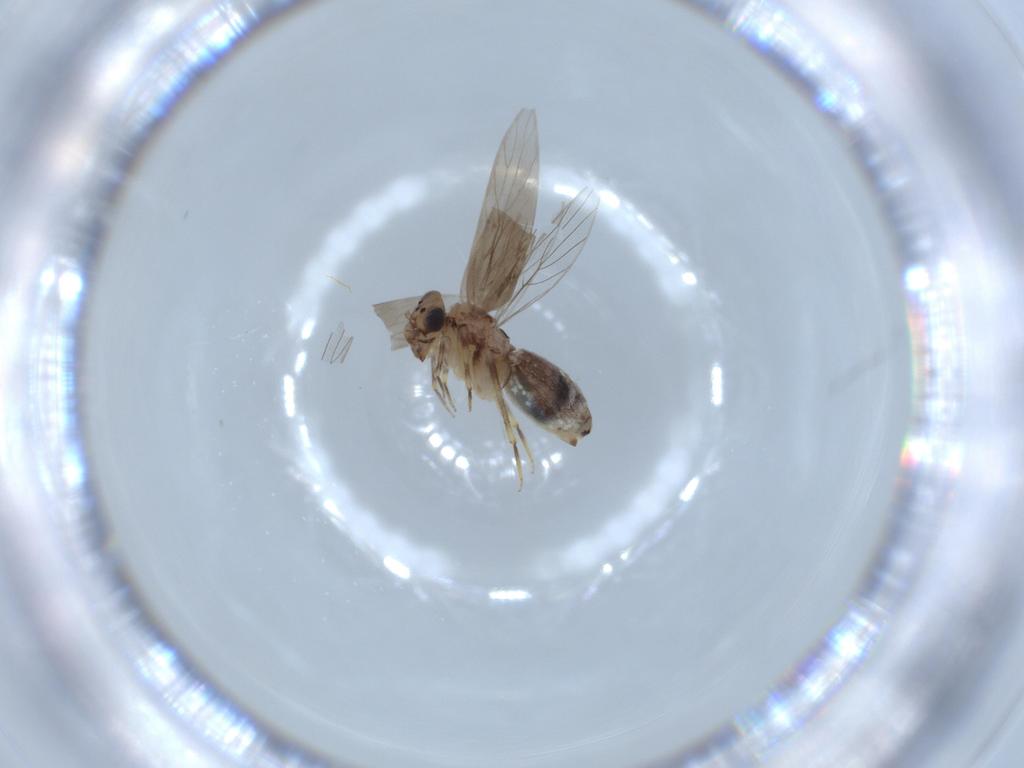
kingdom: Animalia
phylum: Arthropoda
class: Insecta
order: Psocodea
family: Lepidopsocidae
